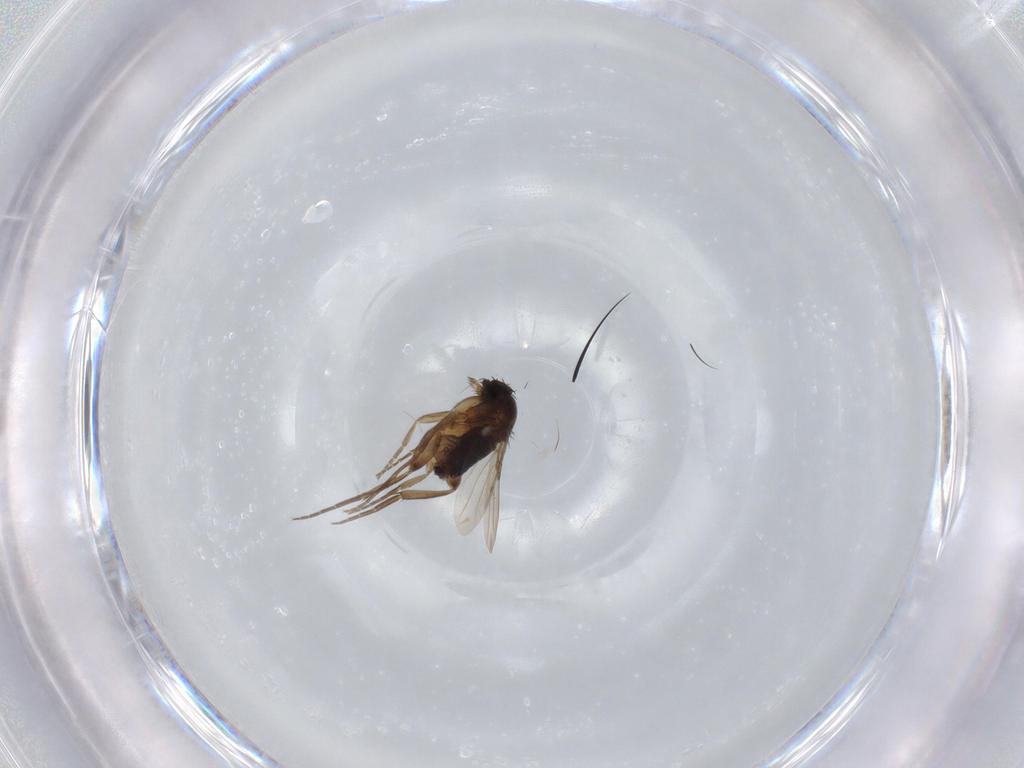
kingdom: Animalia
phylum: Arthropoda
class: Insecta
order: Diptera
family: Phoridae
